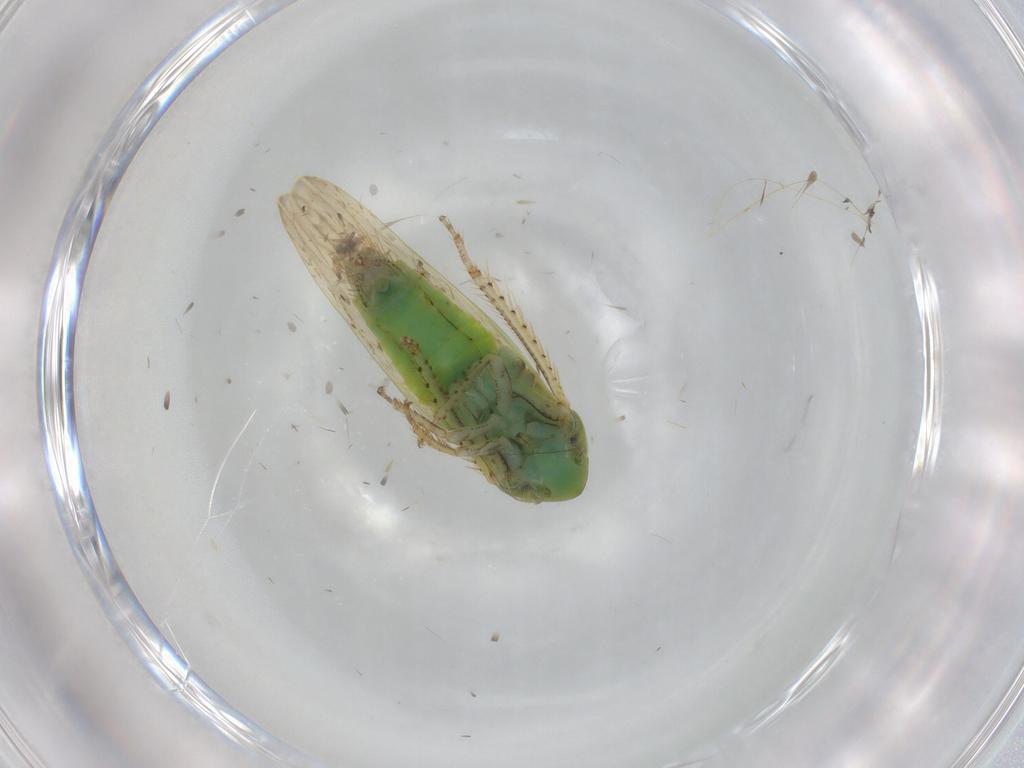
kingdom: Animalia
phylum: Arthropoda
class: Insecta
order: Hemiptera
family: Cicadellidae
